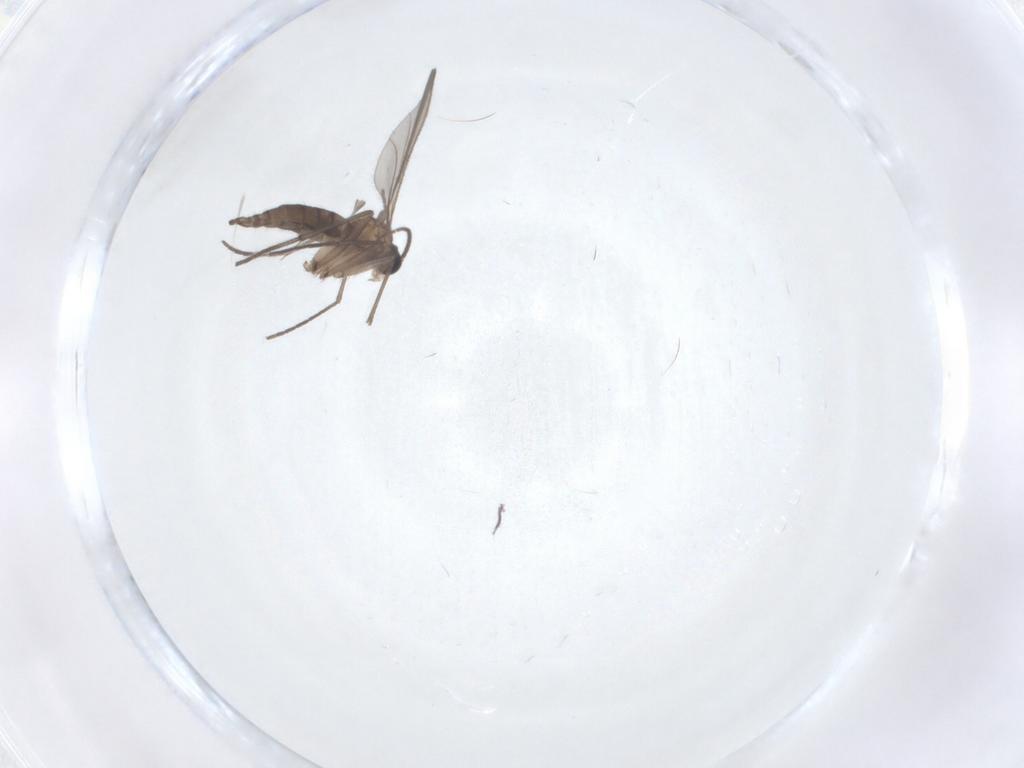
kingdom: Animalia
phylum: Arthropoda
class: Insecta
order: Diptera
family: Sciaridae
